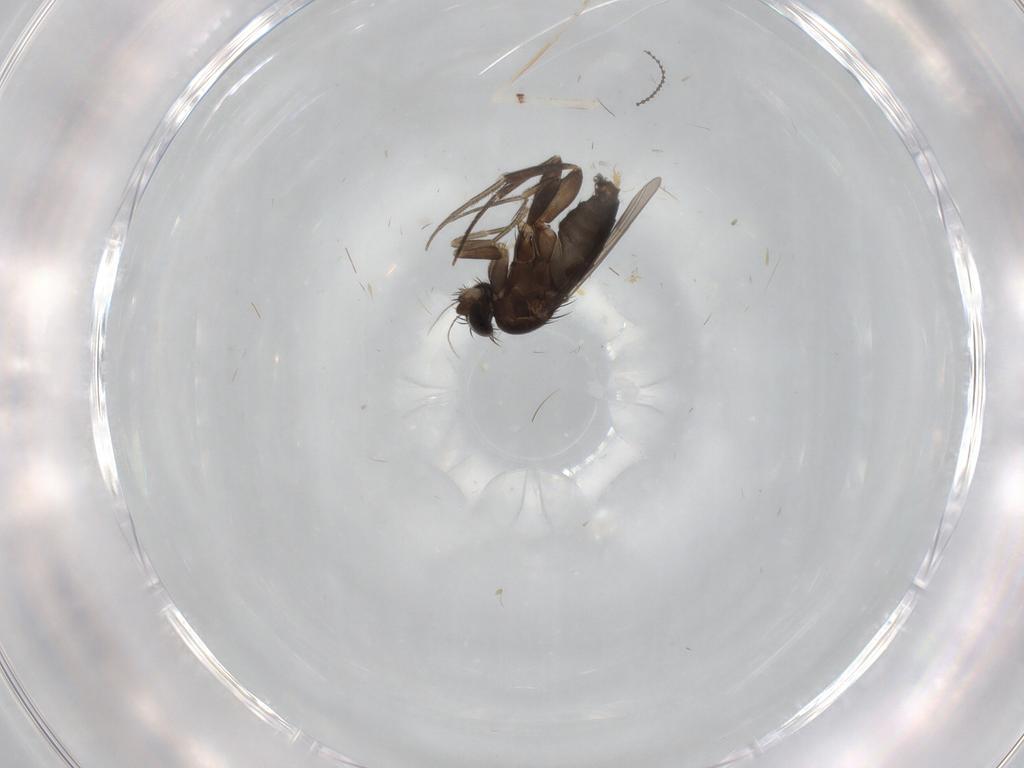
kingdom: Animalia
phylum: Arthropoda
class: Insecta
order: Diptera
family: Phoridae
